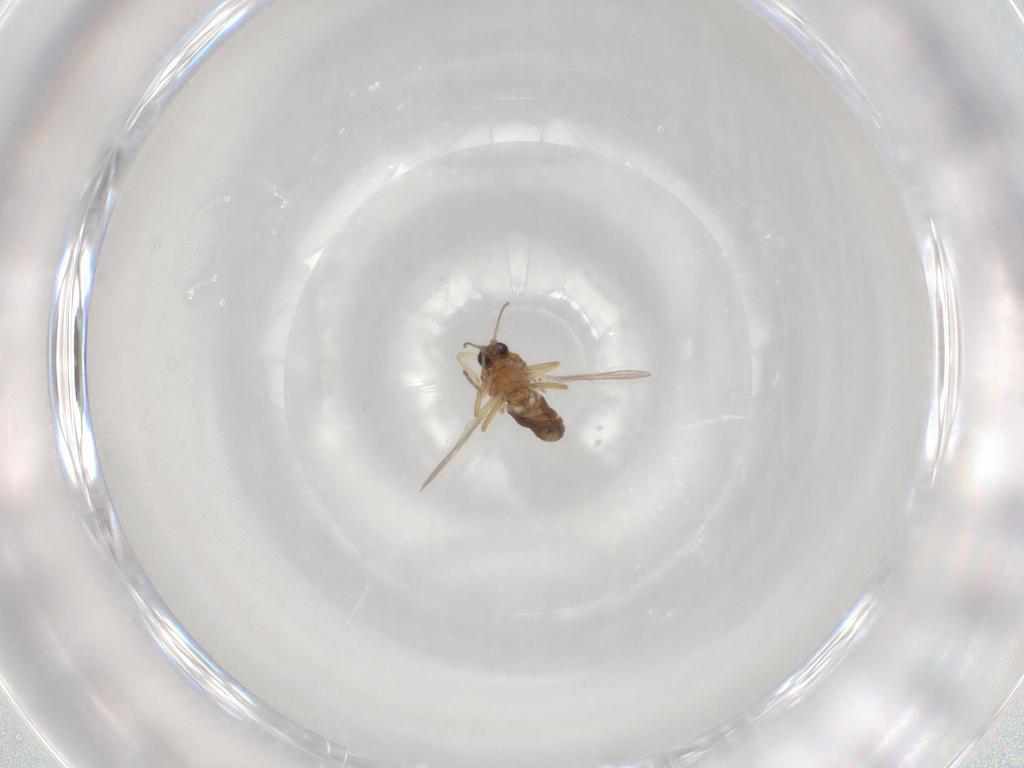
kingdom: Animalia
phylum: Arthropoda
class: Insecta
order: Diptera
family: Ceratopogonidae
